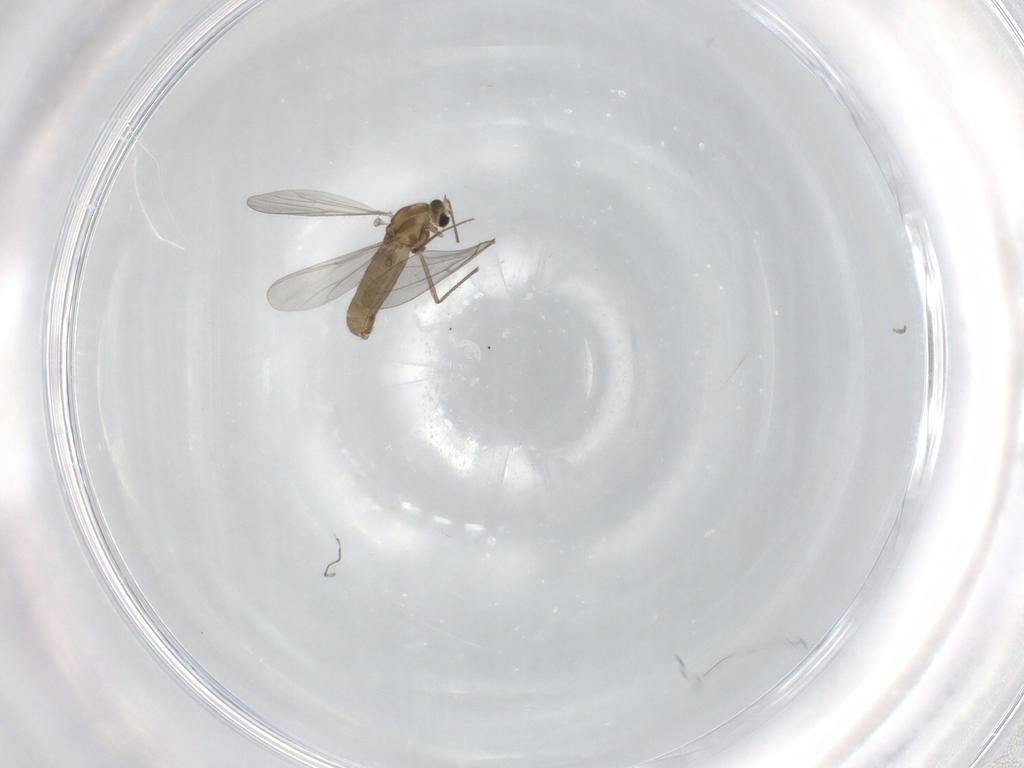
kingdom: Animalia
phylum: Arthropoda
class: Insecta
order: Diptera
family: Chironomidae
